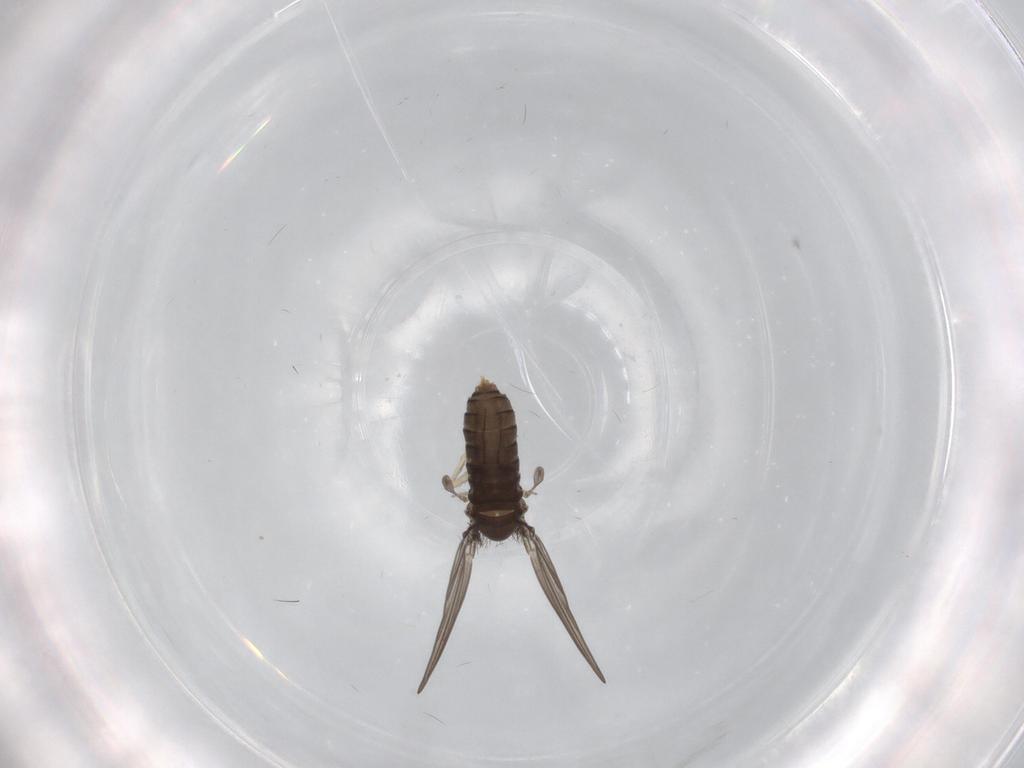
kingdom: Animalia
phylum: Arthropoda
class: Insecta
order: Diptera
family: Psychodidae
